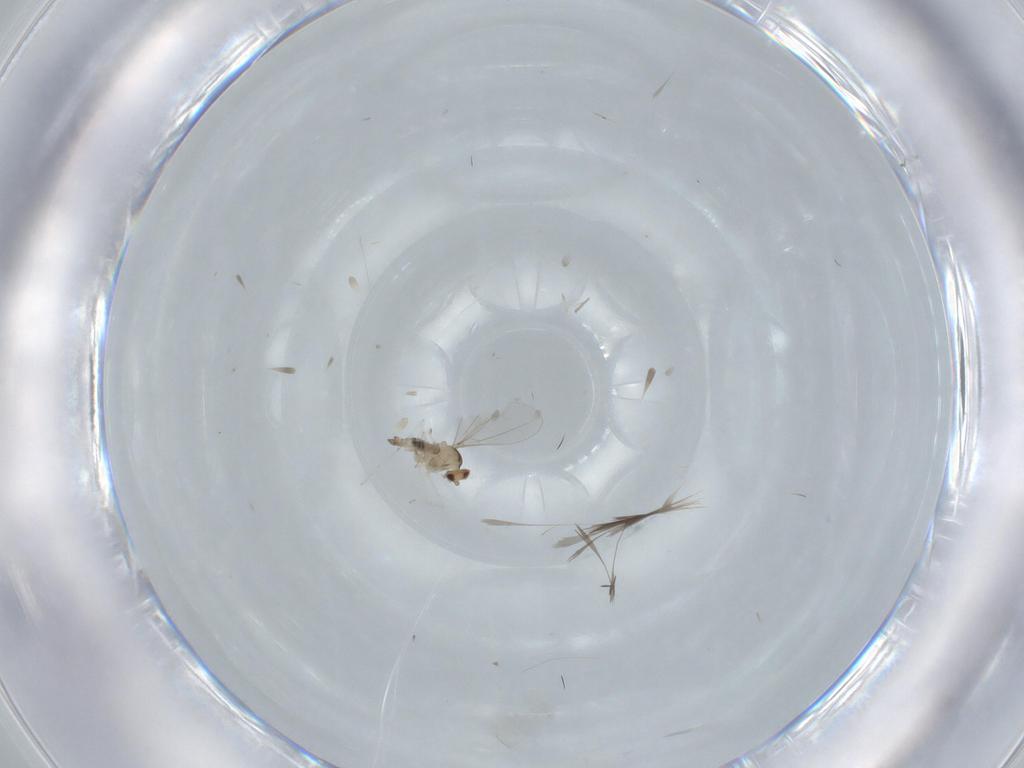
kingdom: Animalia
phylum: Arthropoda
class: Insecta
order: Diptera
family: Cecidomyiidae
